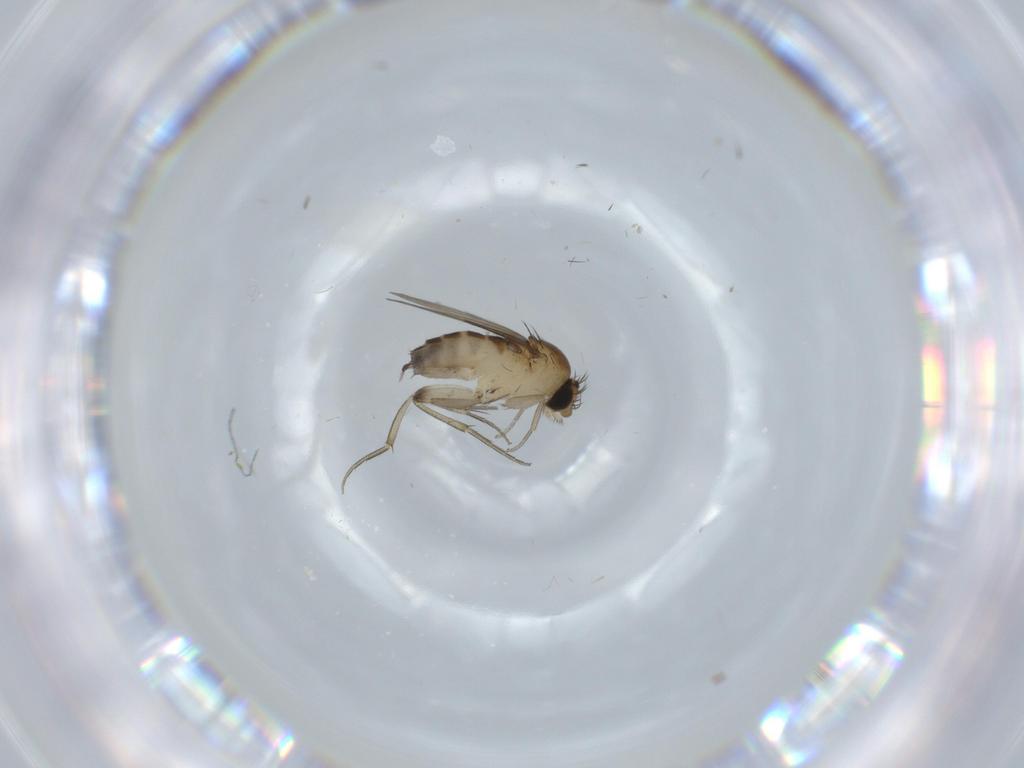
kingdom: Animalia
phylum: Arthropoda
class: Insecta
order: Diptera
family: Phoridae
